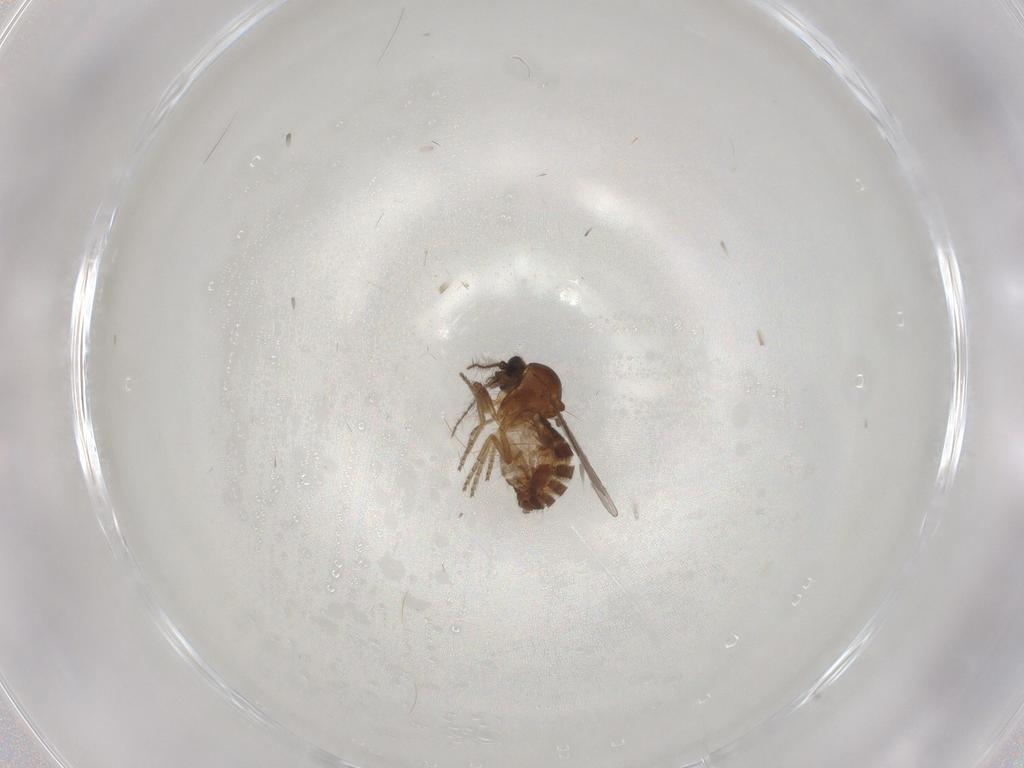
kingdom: Animalia
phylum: Arthropoda
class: Insecta
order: Diptera
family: Ceratopogonidae
